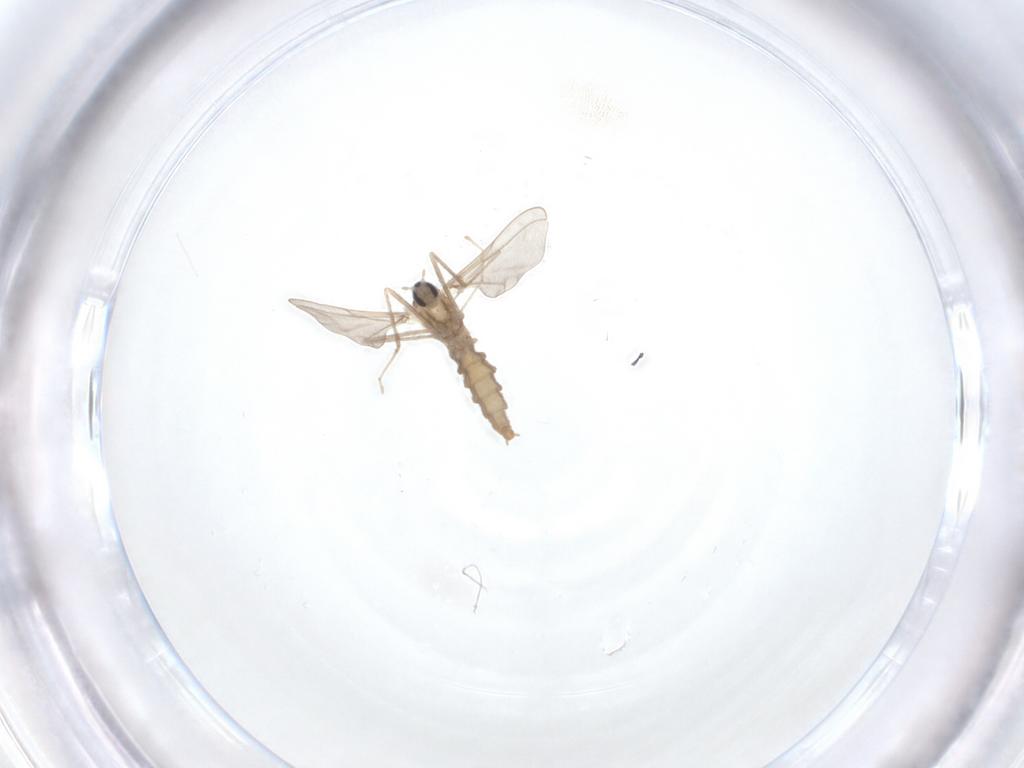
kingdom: Animalia
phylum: Arthropoda
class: Insecta
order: Diptera
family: Cecidomyiidae
